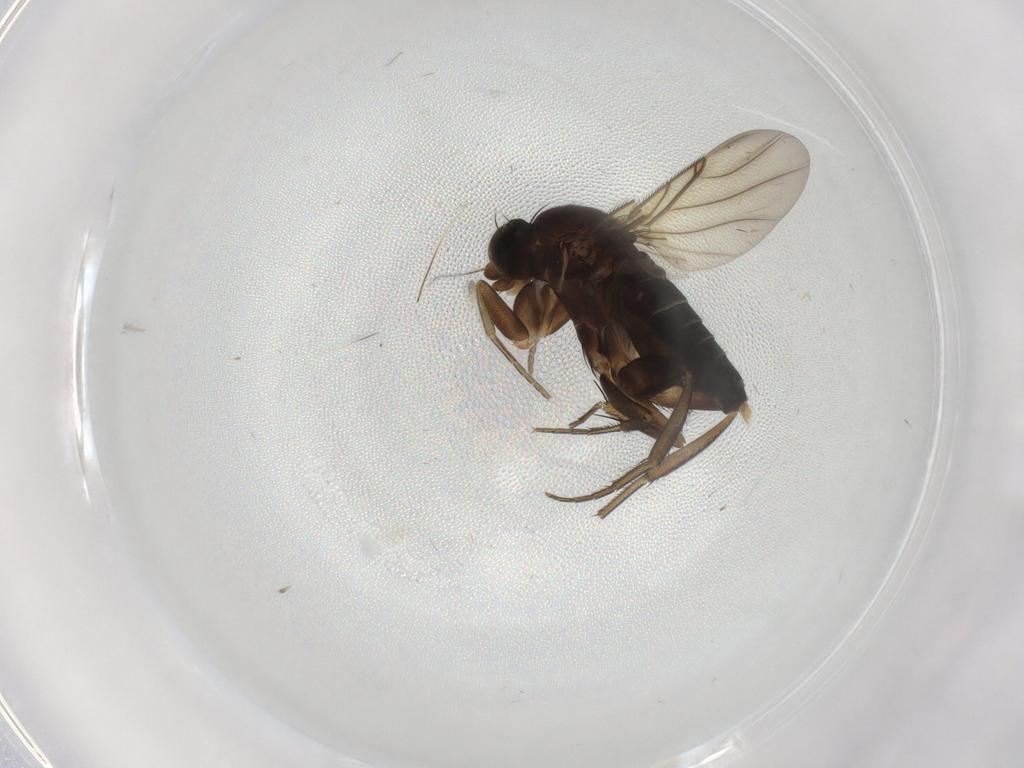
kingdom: Animalia
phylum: Arthropoda
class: Insecta
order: Diptera
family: Phoridae
